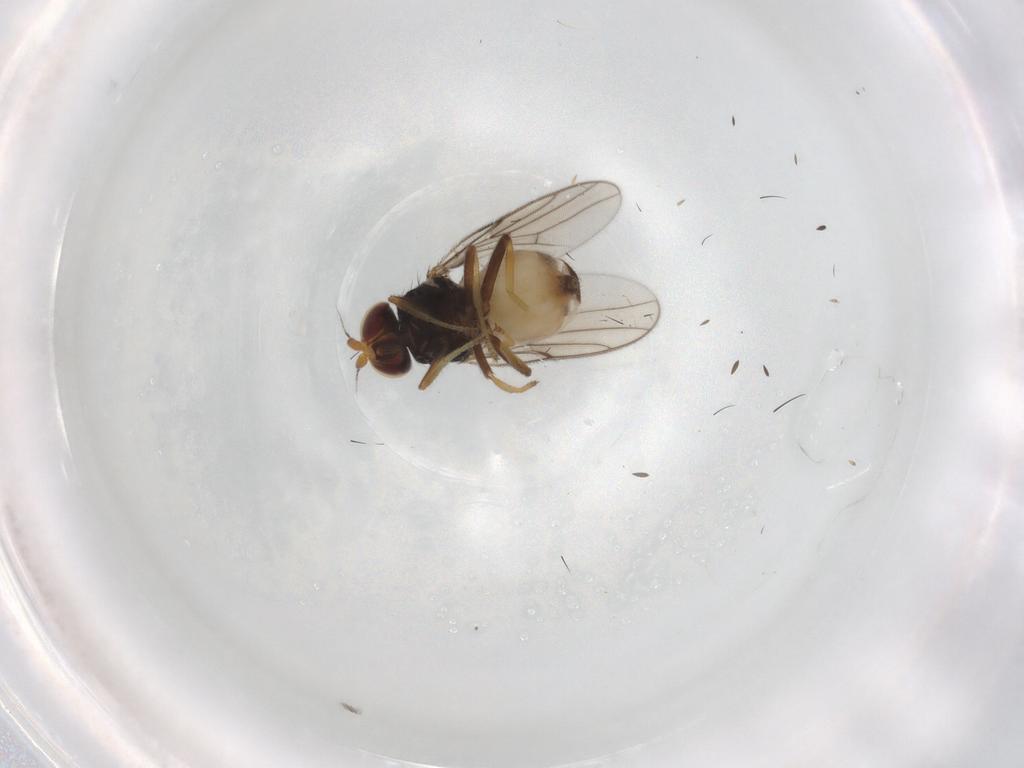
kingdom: Animalia
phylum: Arthropoda
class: Insecta
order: Diptera
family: Chloropidae
